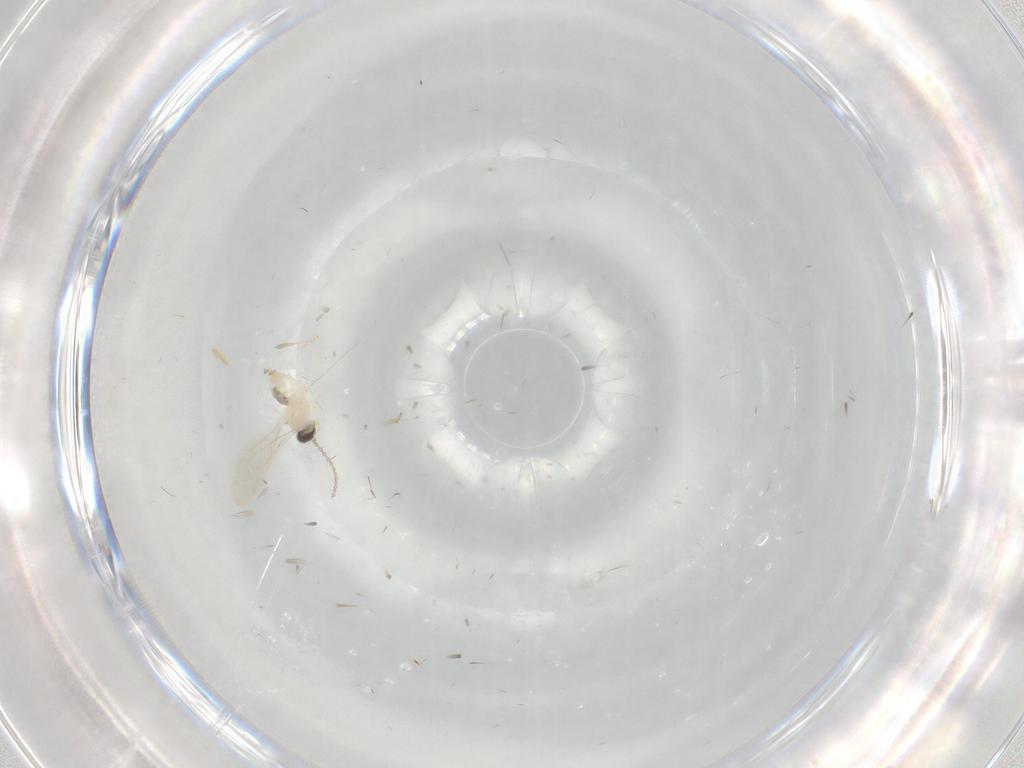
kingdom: Animalia
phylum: Arthropoda
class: Insecta
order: Diptera
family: Cecidomyiidae
